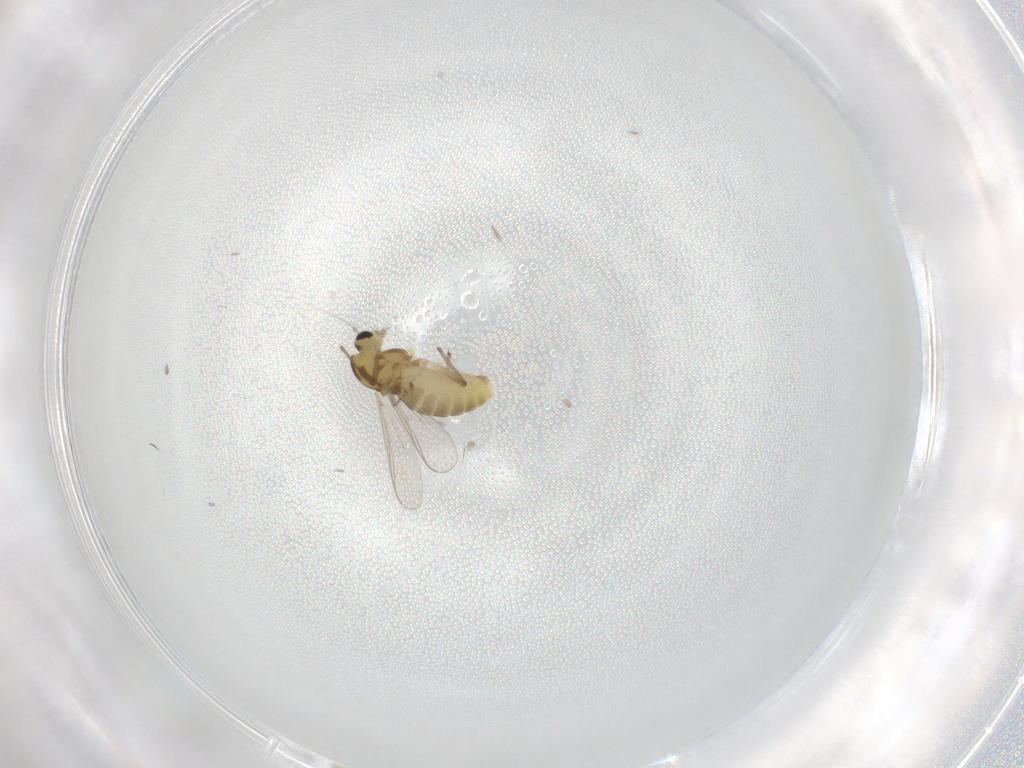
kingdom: Animalia
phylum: Arthropoda
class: Insecta
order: Diptera
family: Chironomidae
